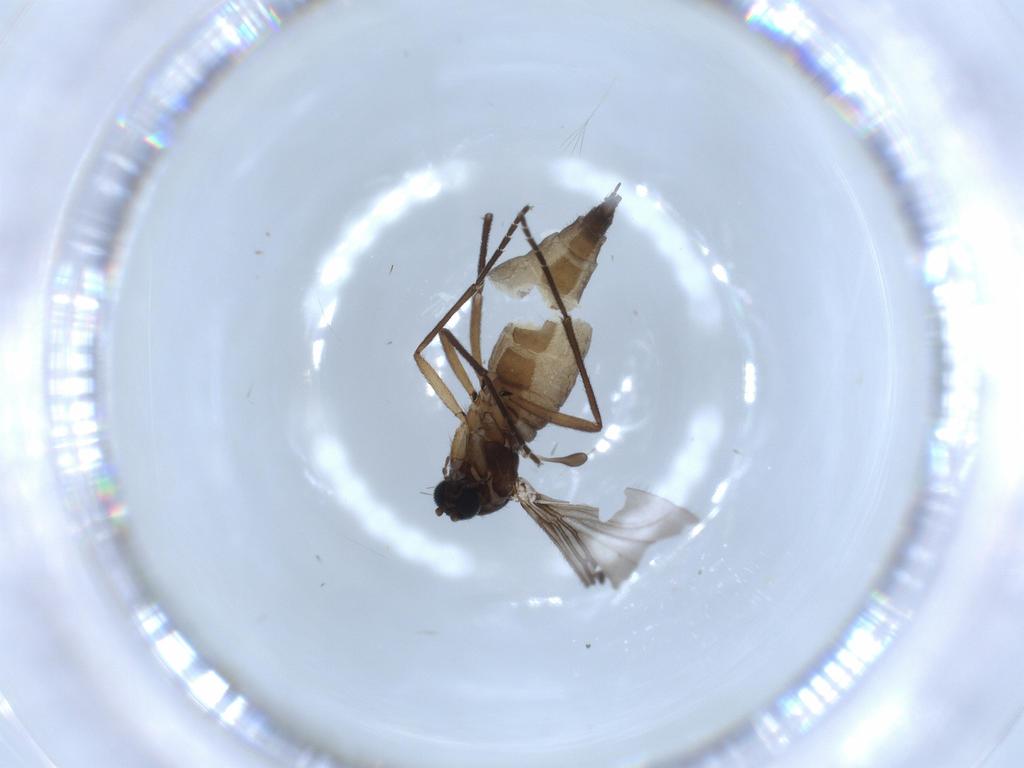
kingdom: Animalia
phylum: Arthropoda
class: Insecta
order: Diptera
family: Sciaridae
